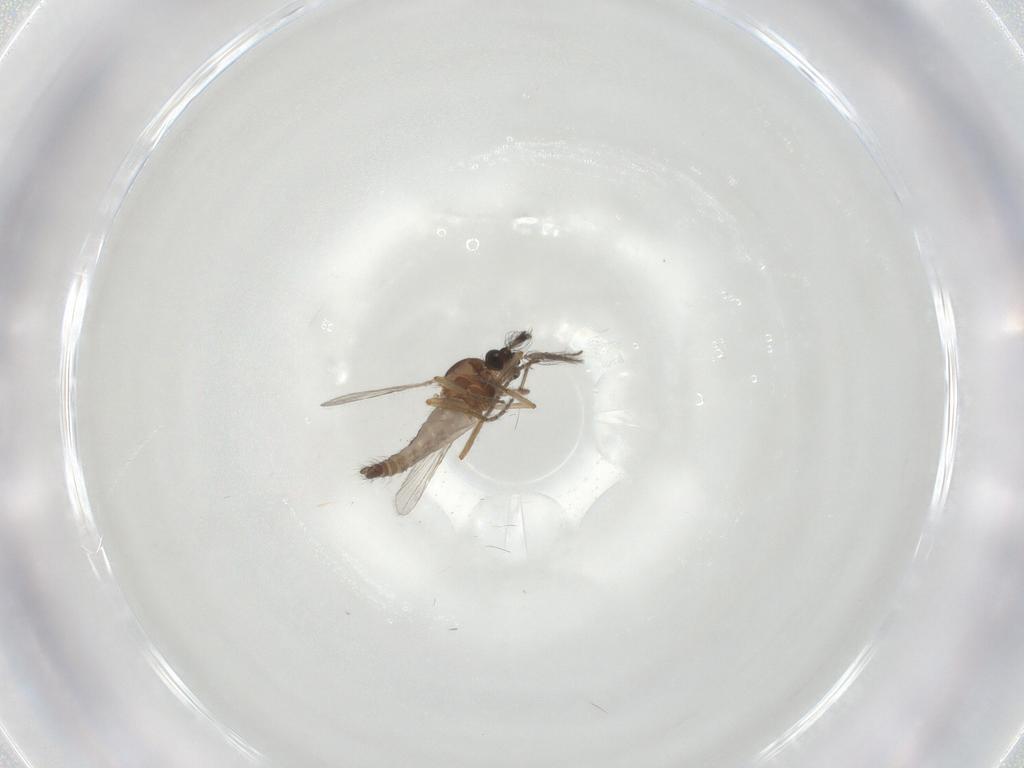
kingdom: Animalia
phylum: Arthropoda
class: Insecta
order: Diptera
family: Ceratopogonidae
